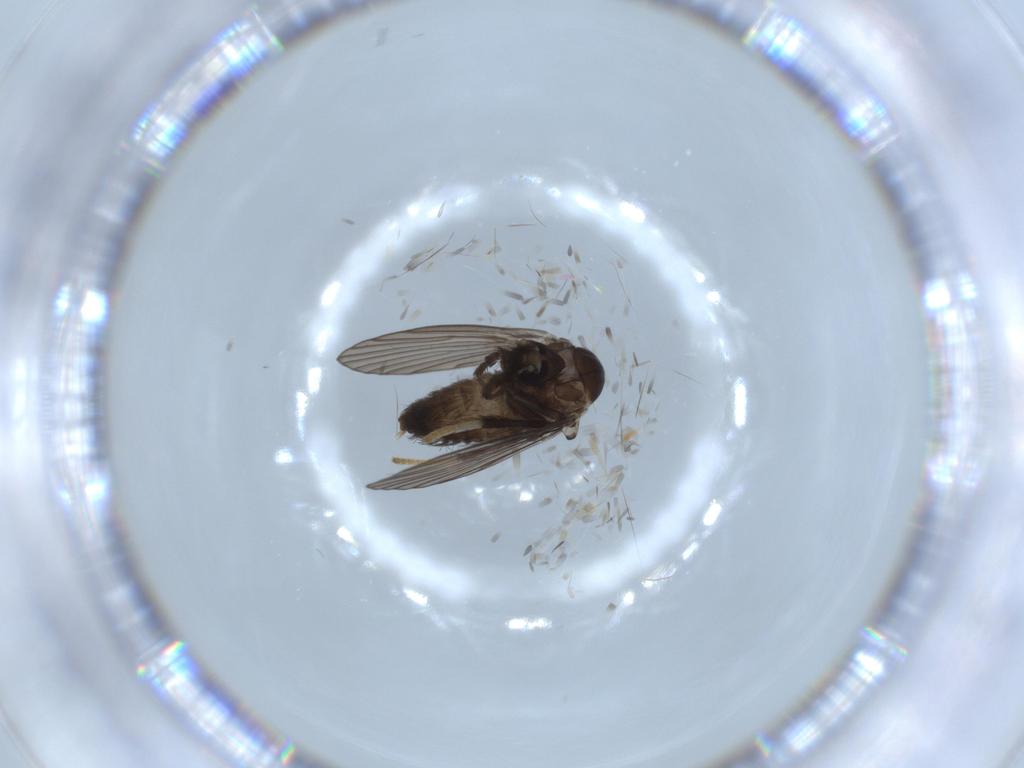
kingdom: Animalia
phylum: Arthropoda
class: Insecta
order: Diptera
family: Psychodidae
